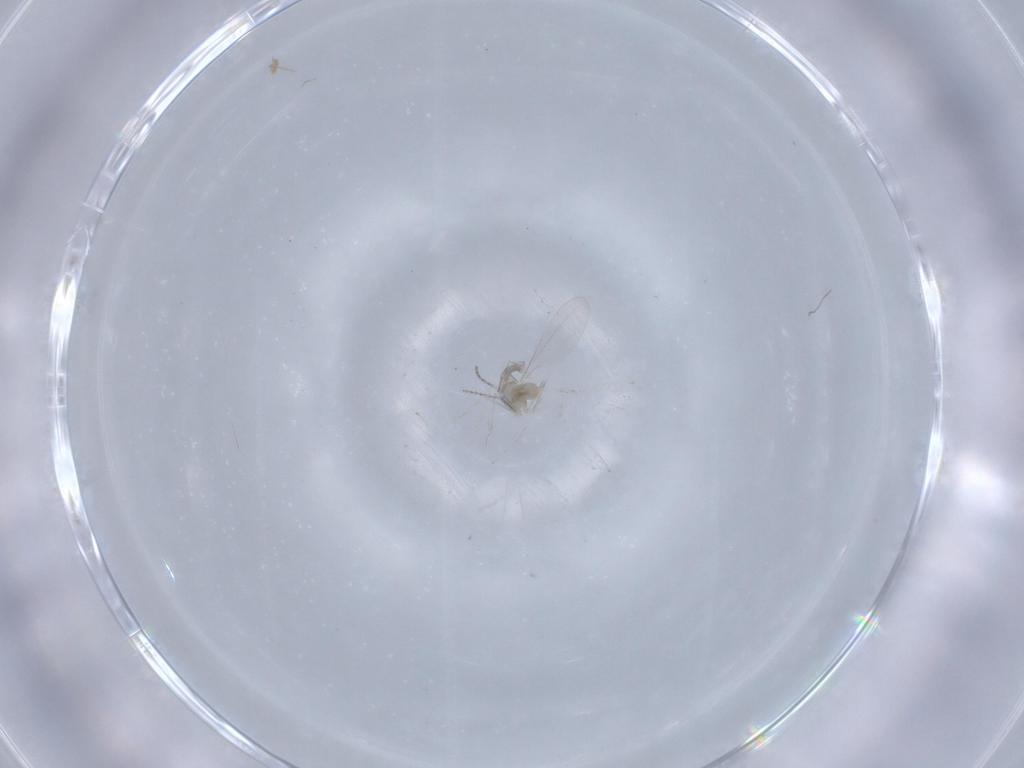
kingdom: Animalia
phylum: Arthropoda
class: Insecta
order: Diptera
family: Cecidomyiidae
